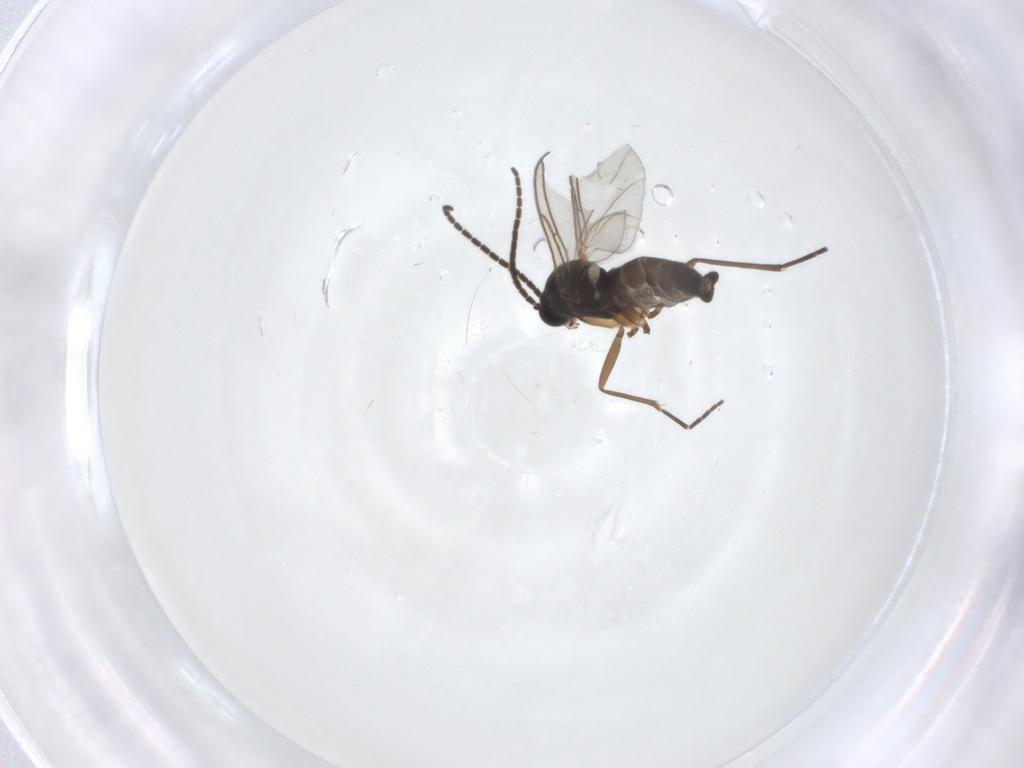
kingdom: Animalia
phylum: Arthropoda
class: Insecta
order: Diptera
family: Sciaridae
